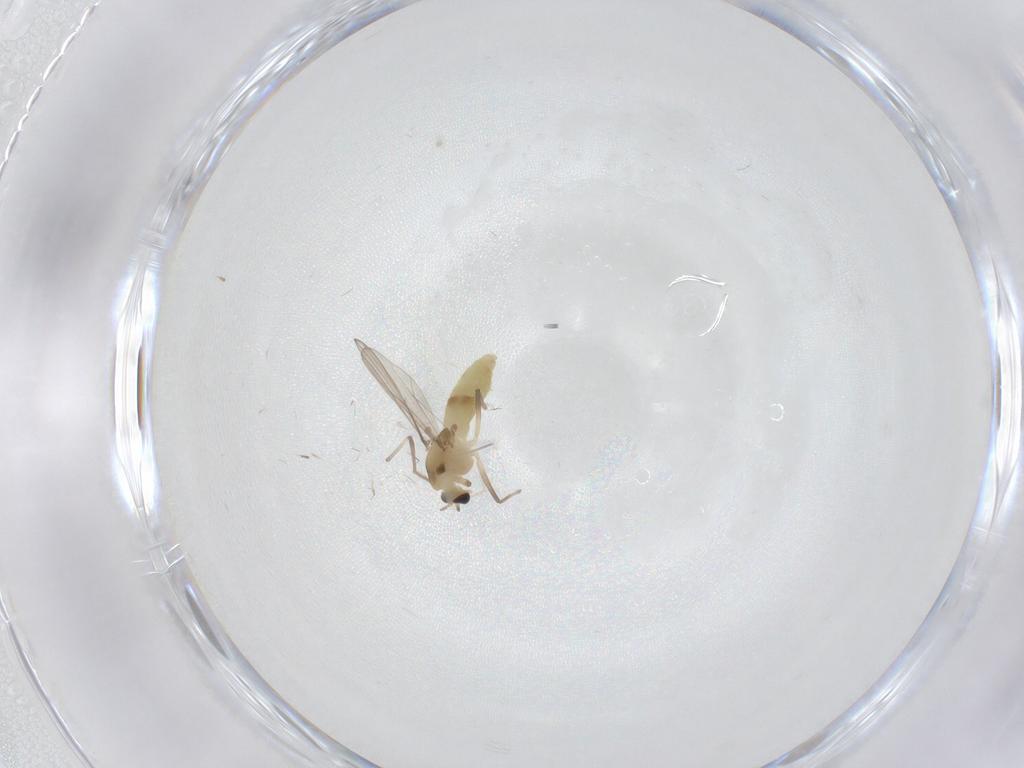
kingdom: Animalia
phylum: Arthropoda
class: Insecta
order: Diptera
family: Chironomidae
